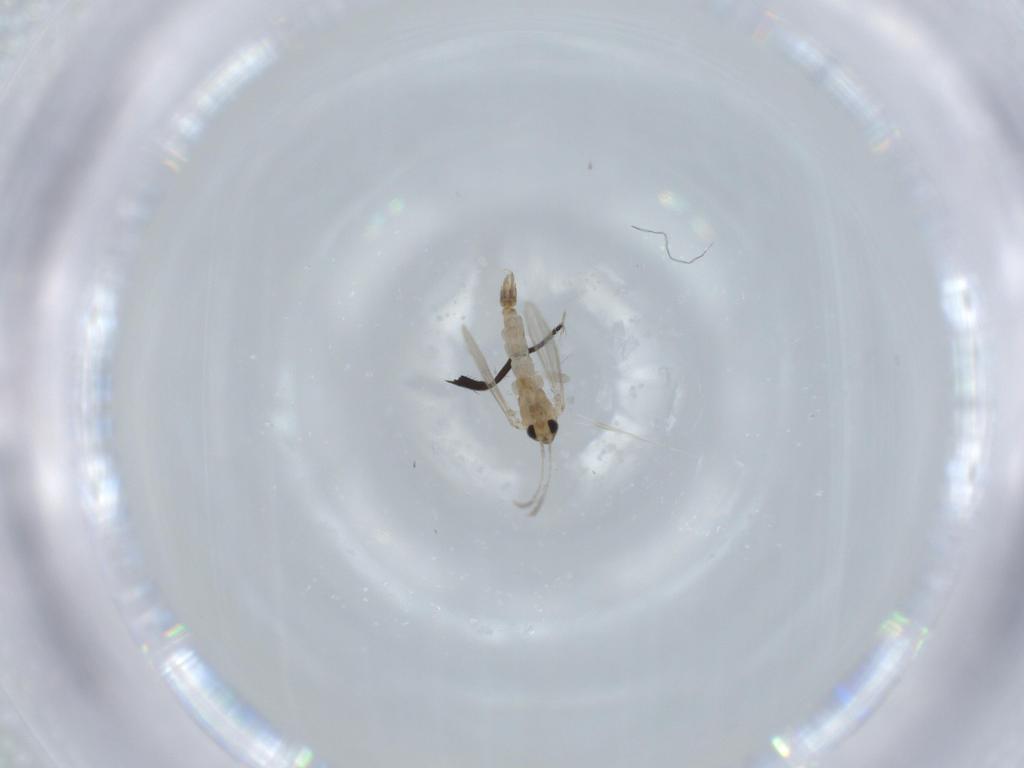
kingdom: Animalia
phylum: Arthropoda
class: Insecta
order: Diptera
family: Psychodidae
